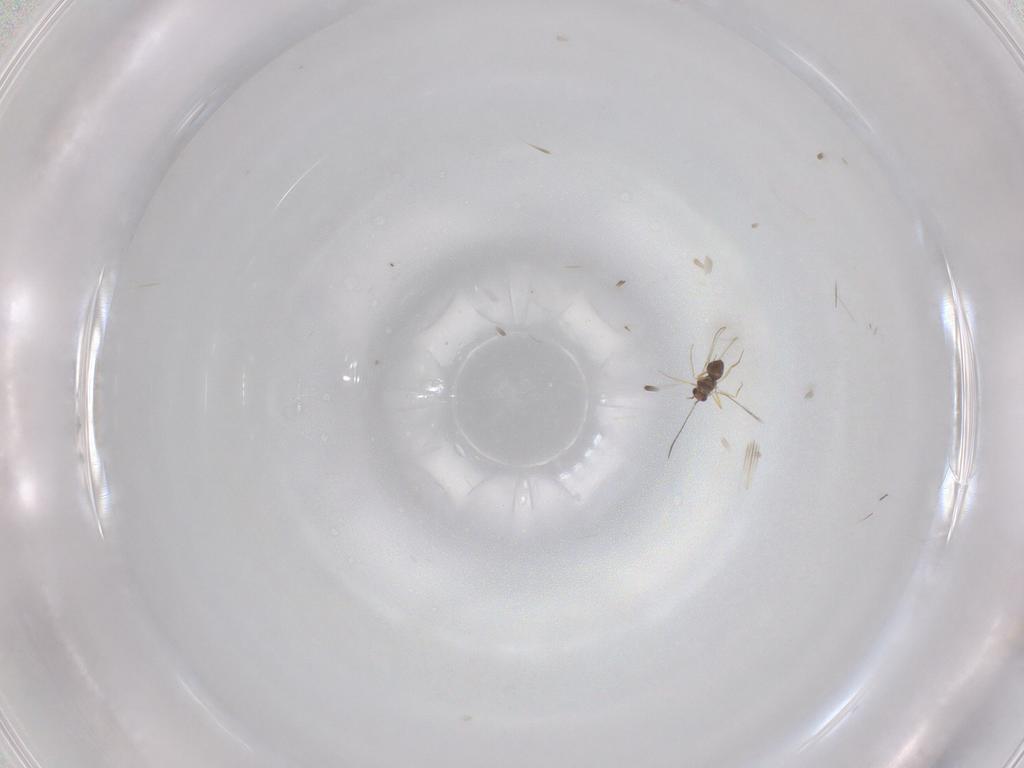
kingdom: Animalia
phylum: Arthropoda
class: Insecta
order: Hymenoptera
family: Mymaridae
